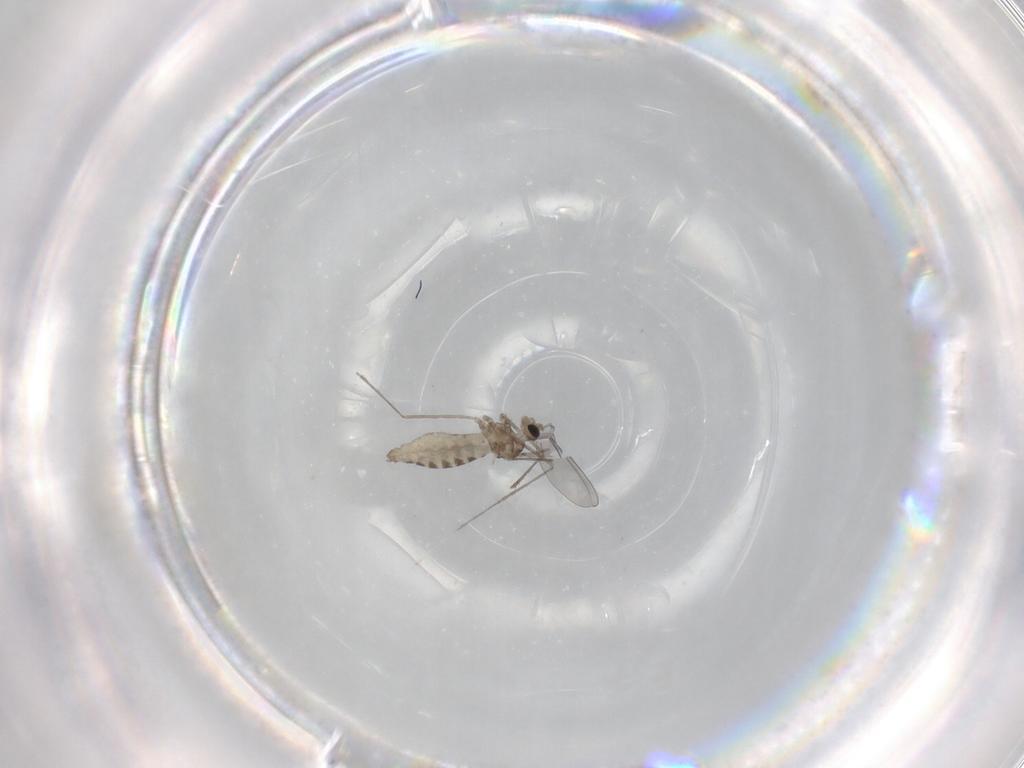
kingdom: Animalia
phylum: Arthropoda
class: Insecta
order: Diptera
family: Cecidomyiidae
